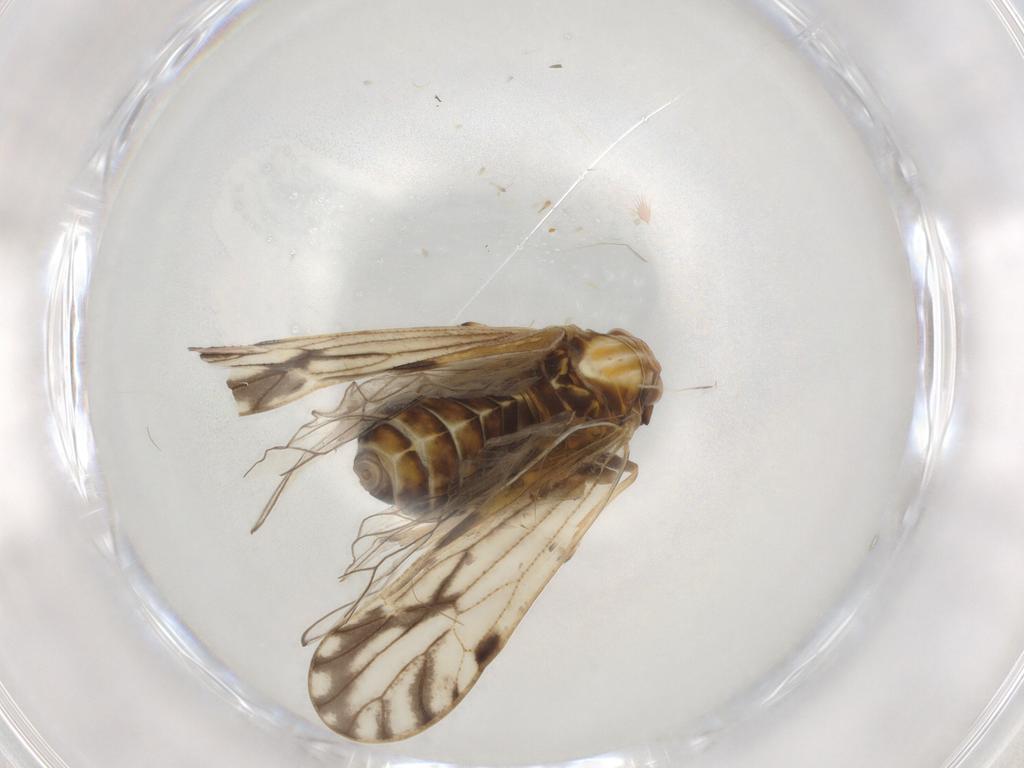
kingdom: Animalia
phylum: Arthropoda
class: Insecta
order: Hemiptera
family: Delphacidae
